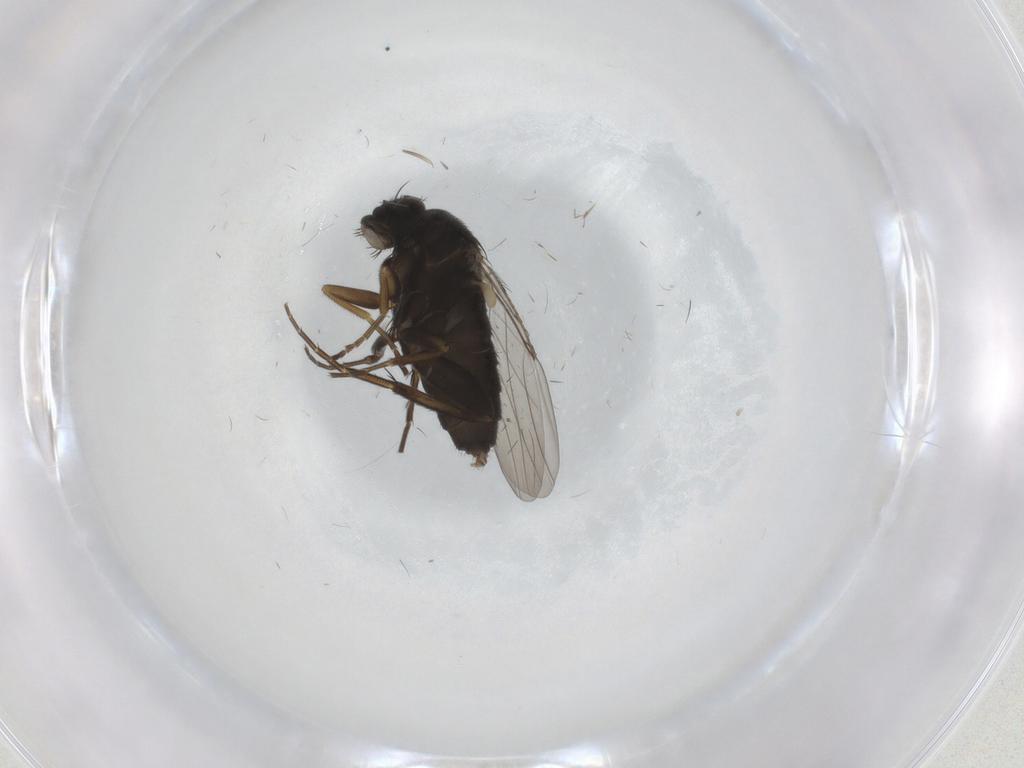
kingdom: Animalia
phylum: Arthropoda
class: Insecta
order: Diptera
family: Phoridae
